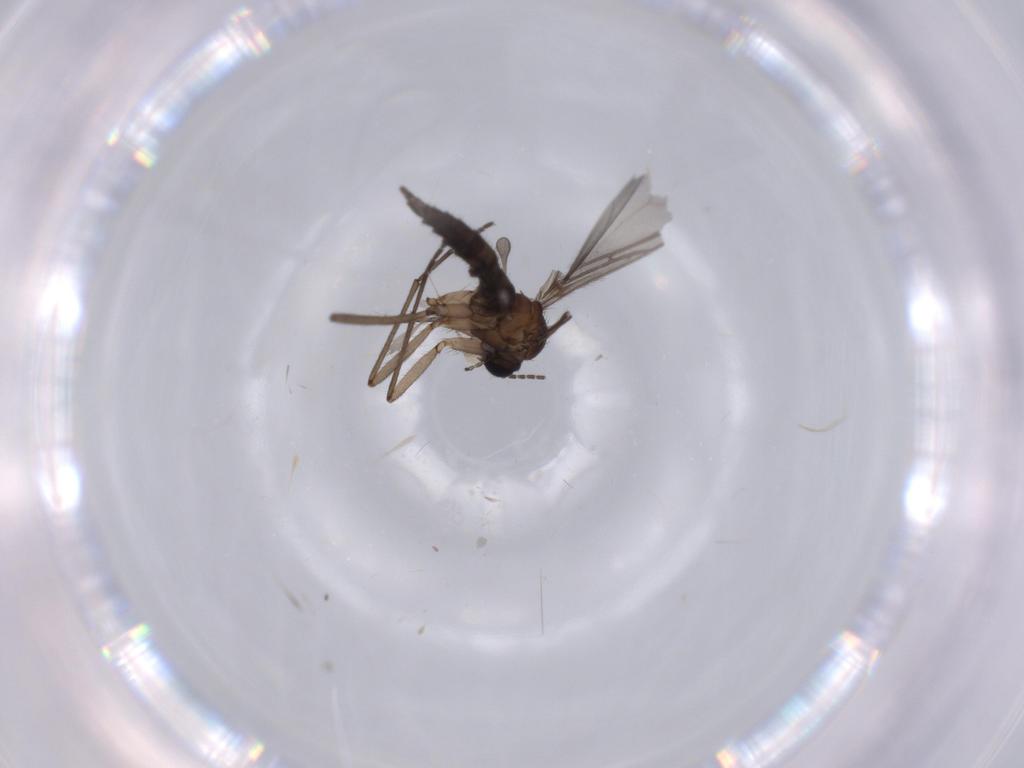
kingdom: Animalia
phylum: Arthropoda
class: Insecta
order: Diptera
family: Sciaridae
